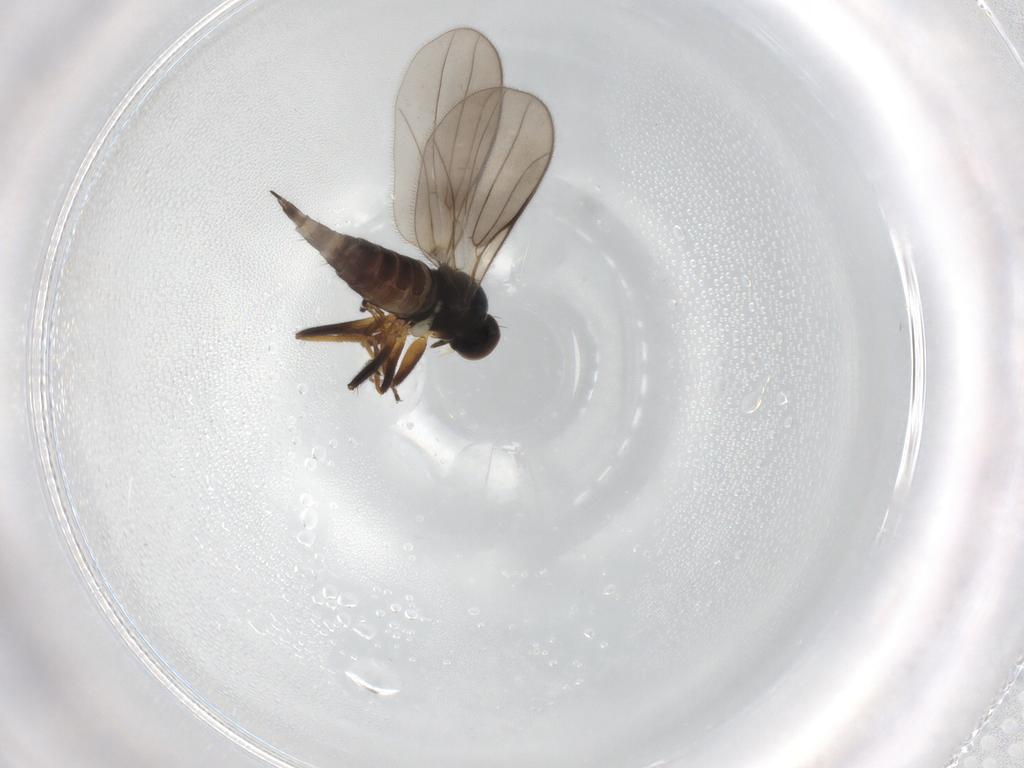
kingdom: Animalia
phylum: Arthropoda
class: Insecta
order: Diptera
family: Hybotidae
